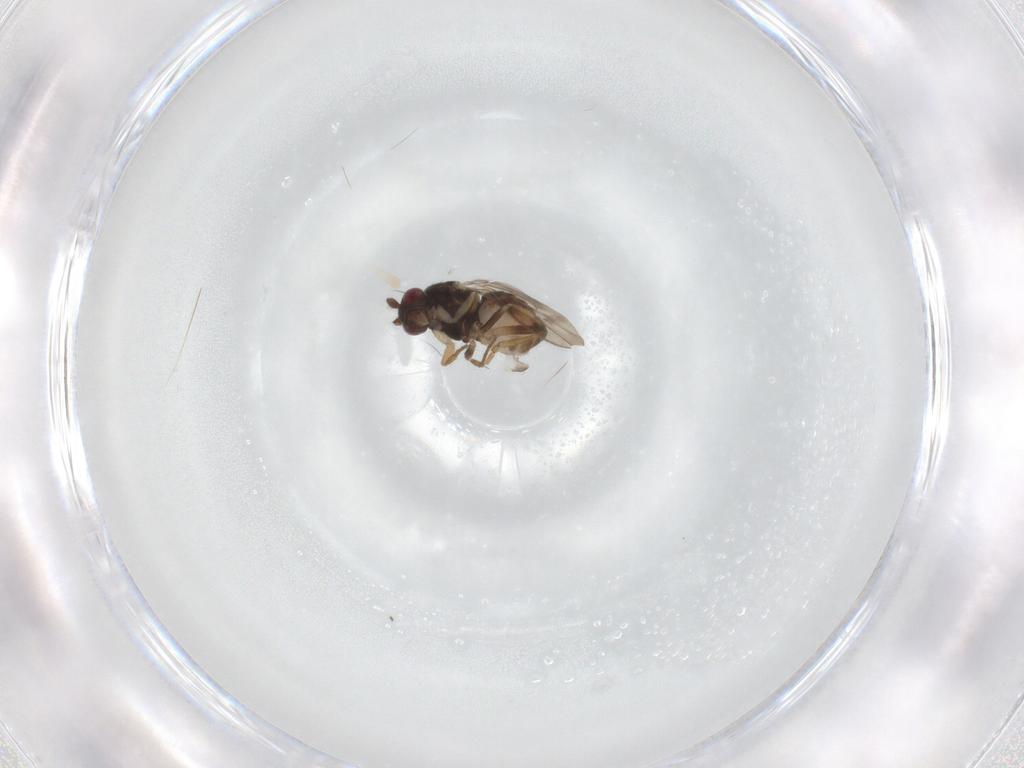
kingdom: Animalia
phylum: Arthropoda
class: Insecta
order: Diptera
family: Sphaeroceridae
